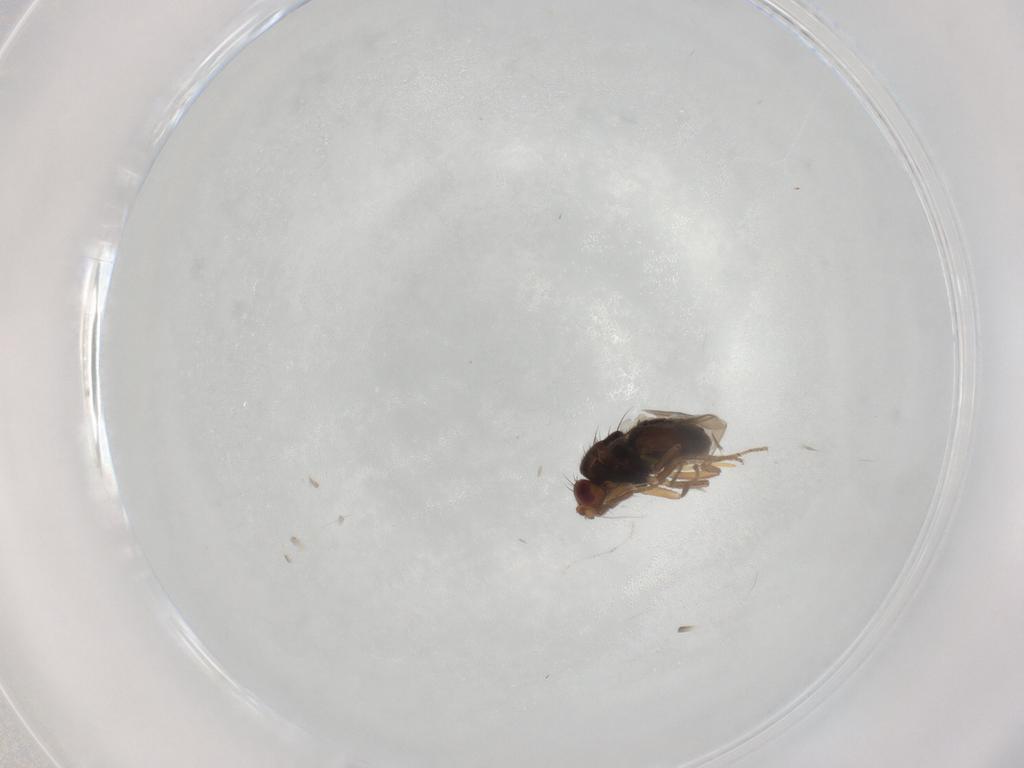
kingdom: Animalia
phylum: Arthropoda
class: Insecta
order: Diptera
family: Sphaeroceridae
